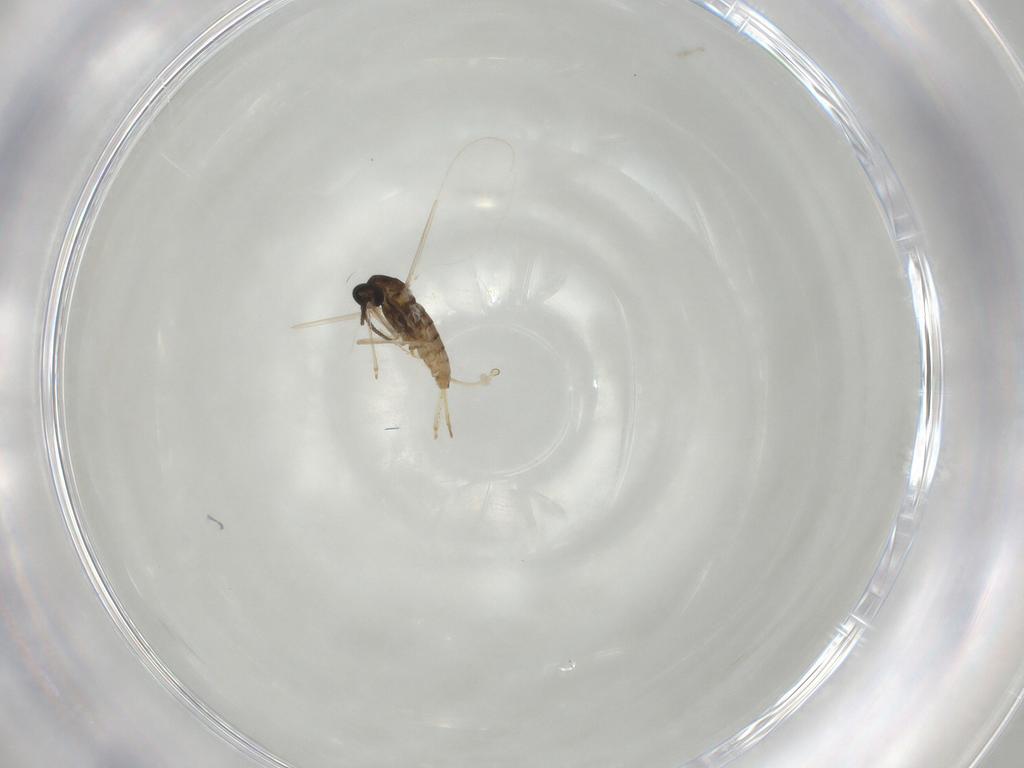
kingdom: Animalia
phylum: Arthropoda
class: Insecta
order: Diptera
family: Cecidomyiidae
